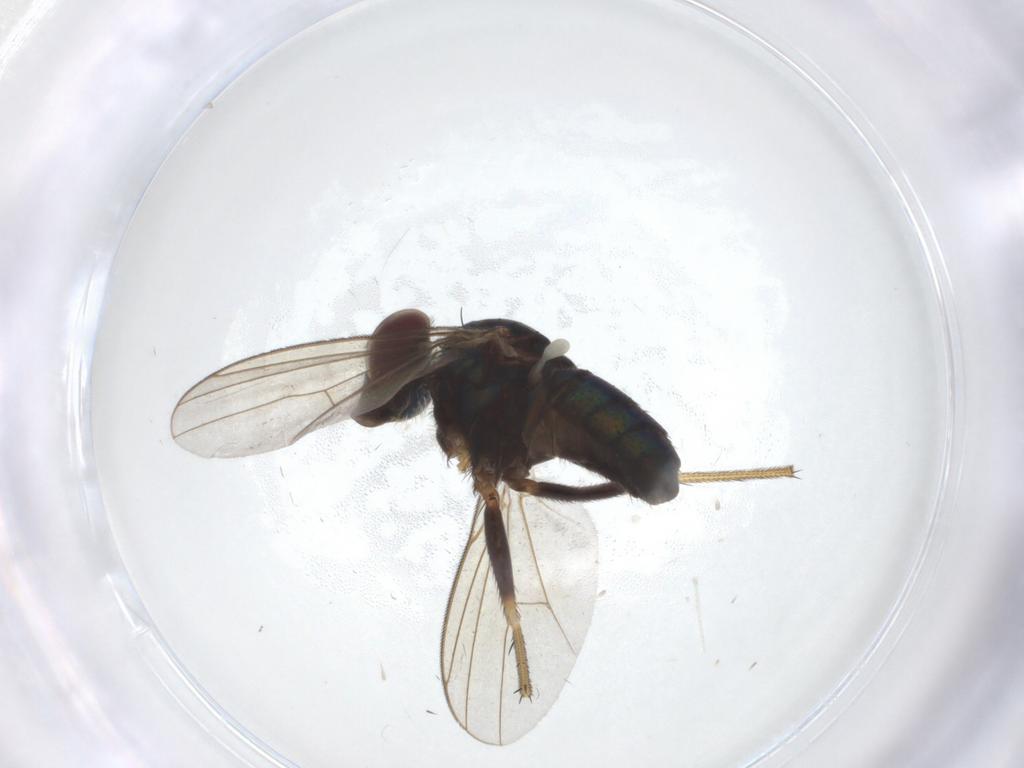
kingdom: Animalia
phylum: Arthropoda
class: Insecta
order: Diptera
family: Dolichopodidae
